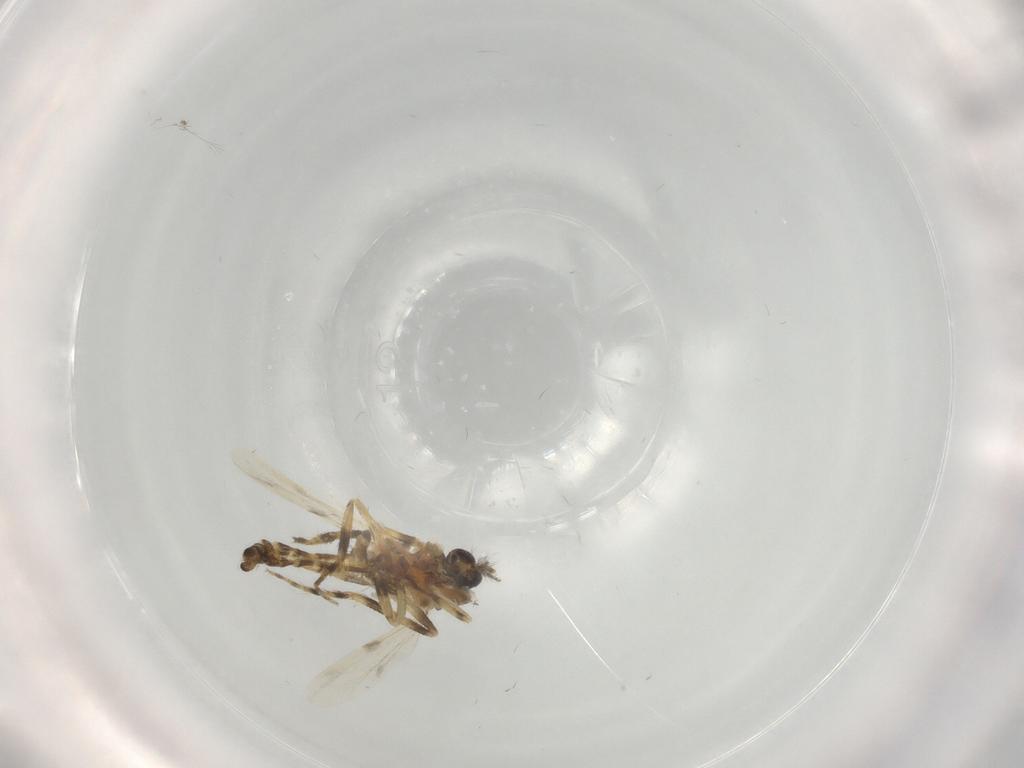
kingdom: Animalia
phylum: Arthropoda
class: Insecta
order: Diptera
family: Ceratopogonidae
